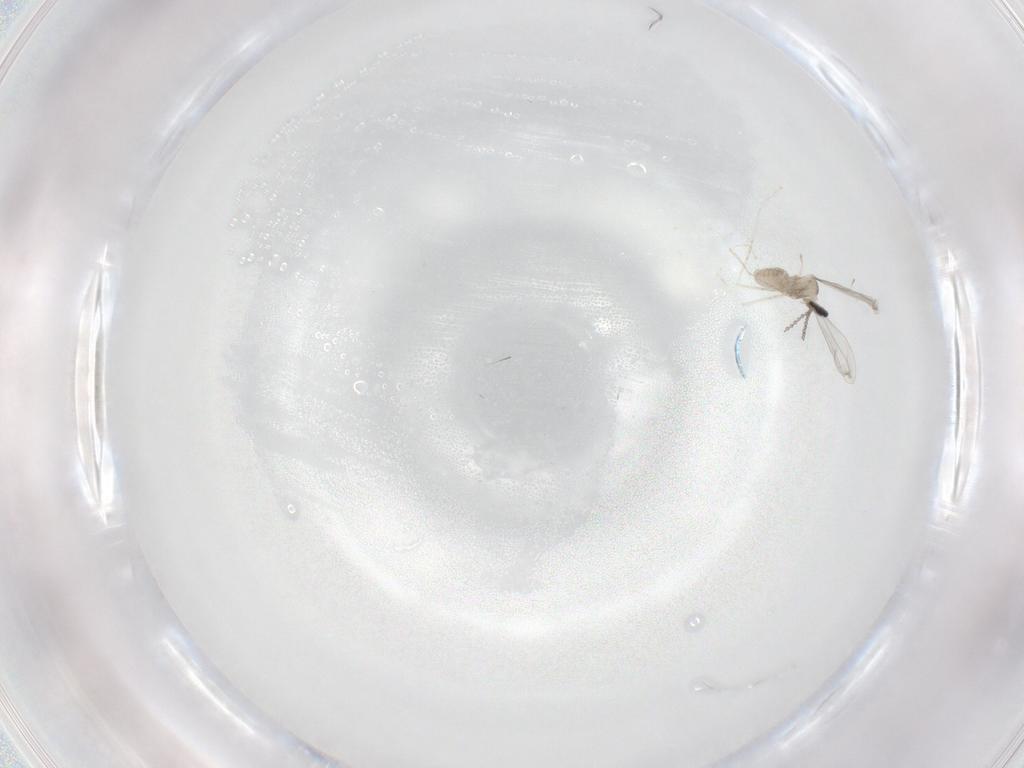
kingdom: Animalia
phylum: Arthropoda
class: Insecta
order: Diptera
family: Cecidomyiidae
